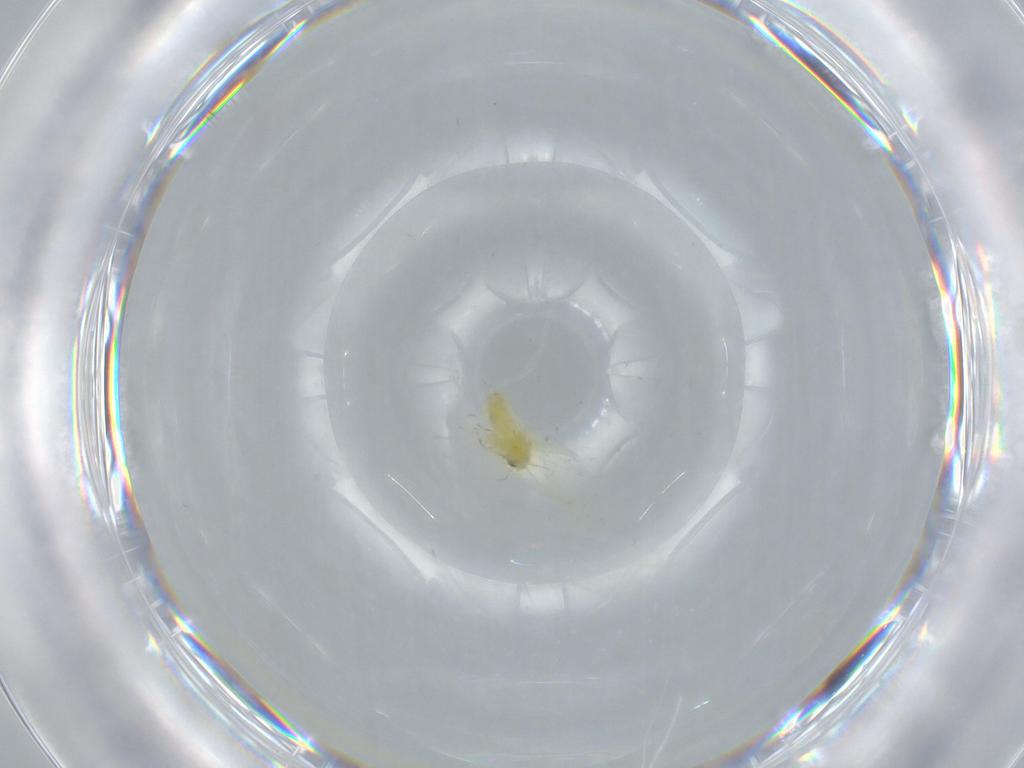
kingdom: Animalia
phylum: Arthropoda
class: Insecta
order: Hemiptera
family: Aleyrodidae
